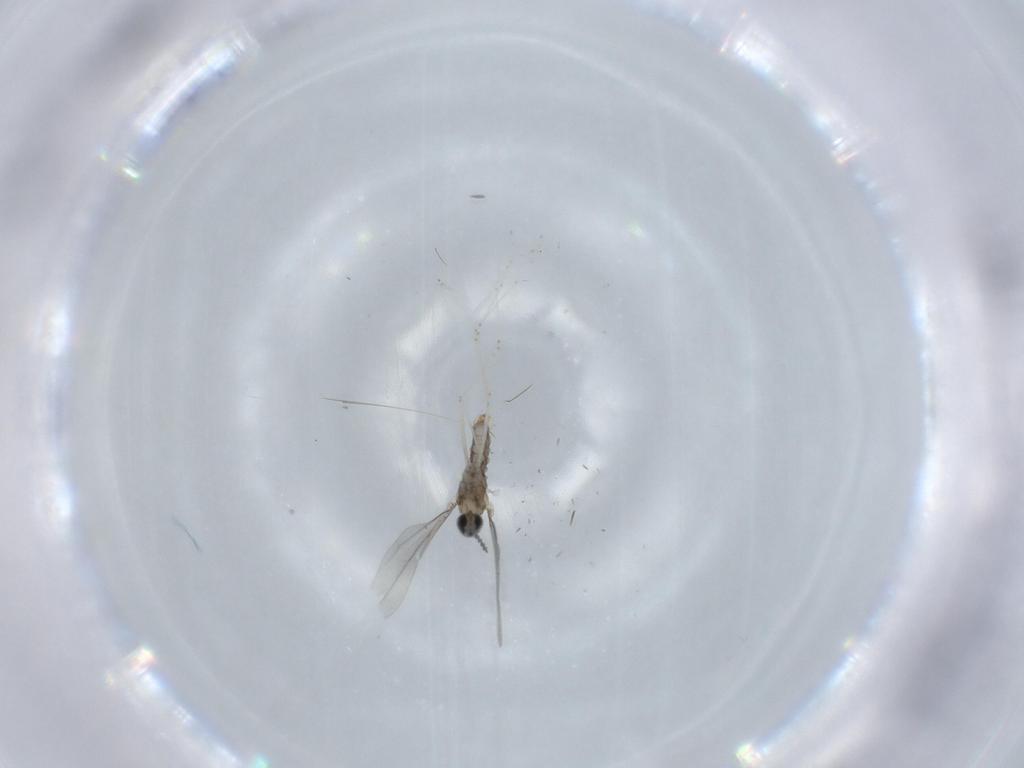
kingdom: Animalia
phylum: Arthropoda
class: Insecta
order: Diptera
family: Cecidomyiidae
